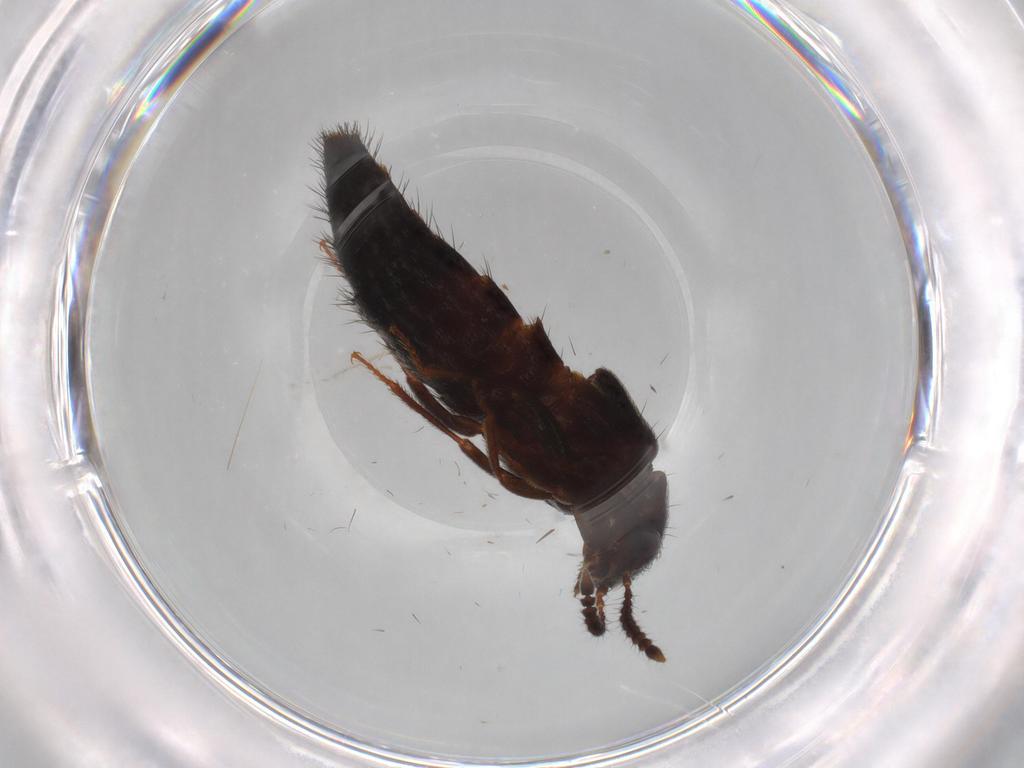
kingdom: Animalia
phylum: Arthropoda
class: Insecta
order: Coleoptera
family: Staphylinidae
